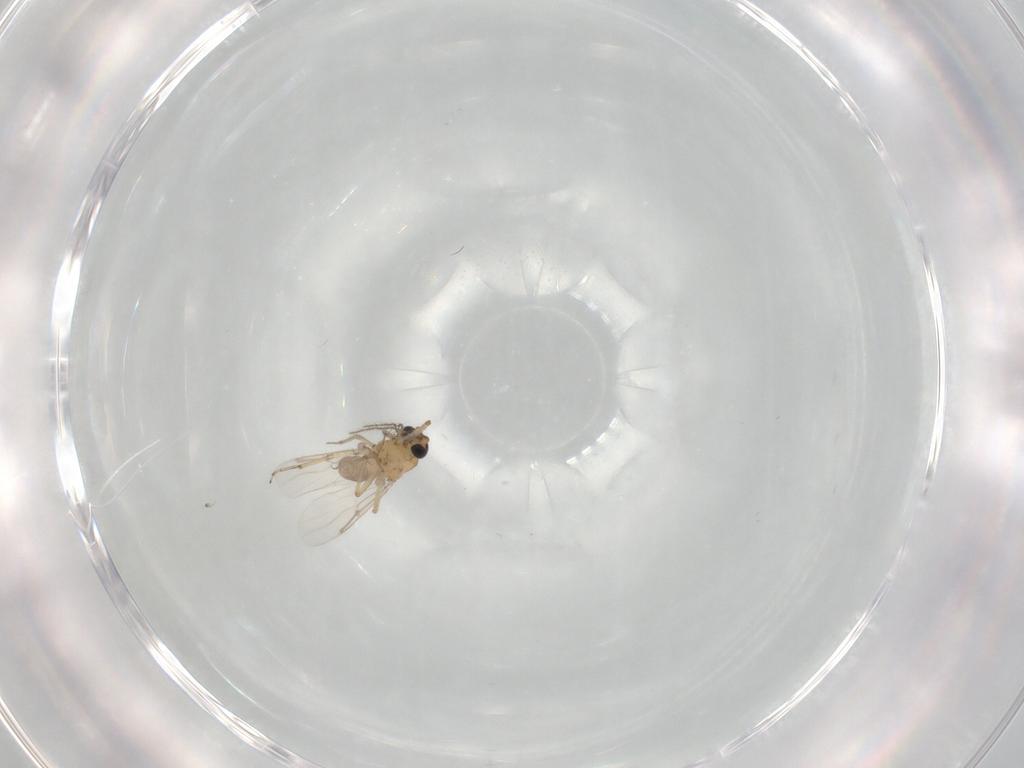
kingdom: Animalia
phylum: Arthropoda
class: Insecta
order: Diptera
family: Ceratopogonidae
